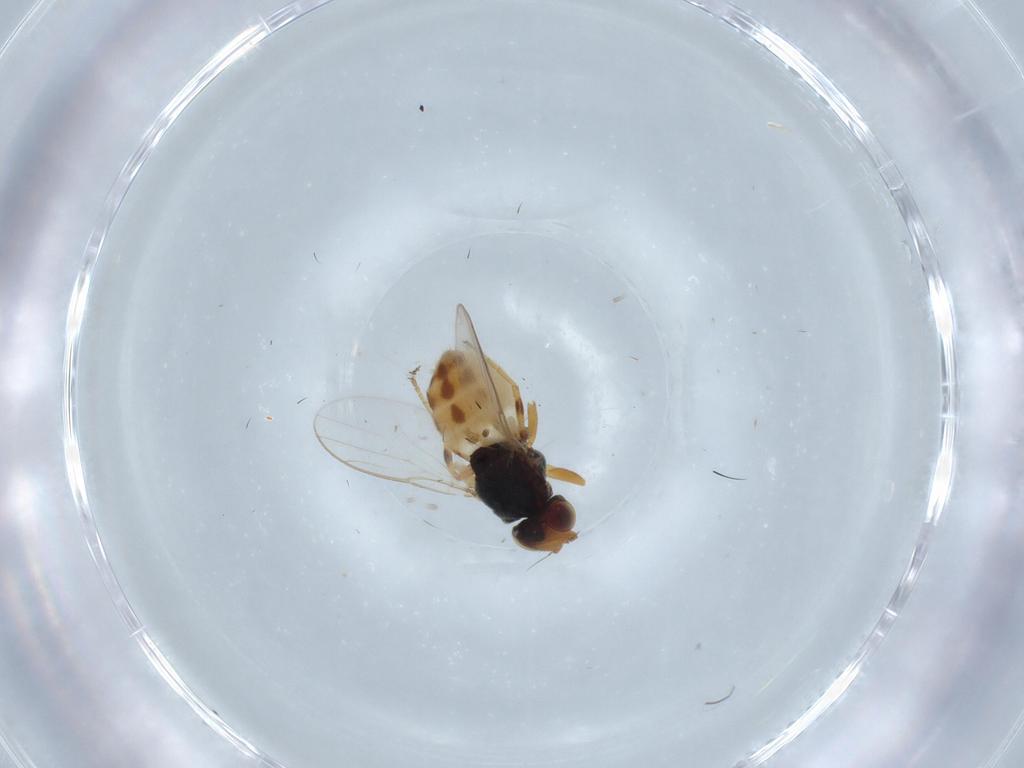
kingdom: Animalia
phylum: Arthropoda
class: Insecta
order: Diptera
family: Chloropidae
